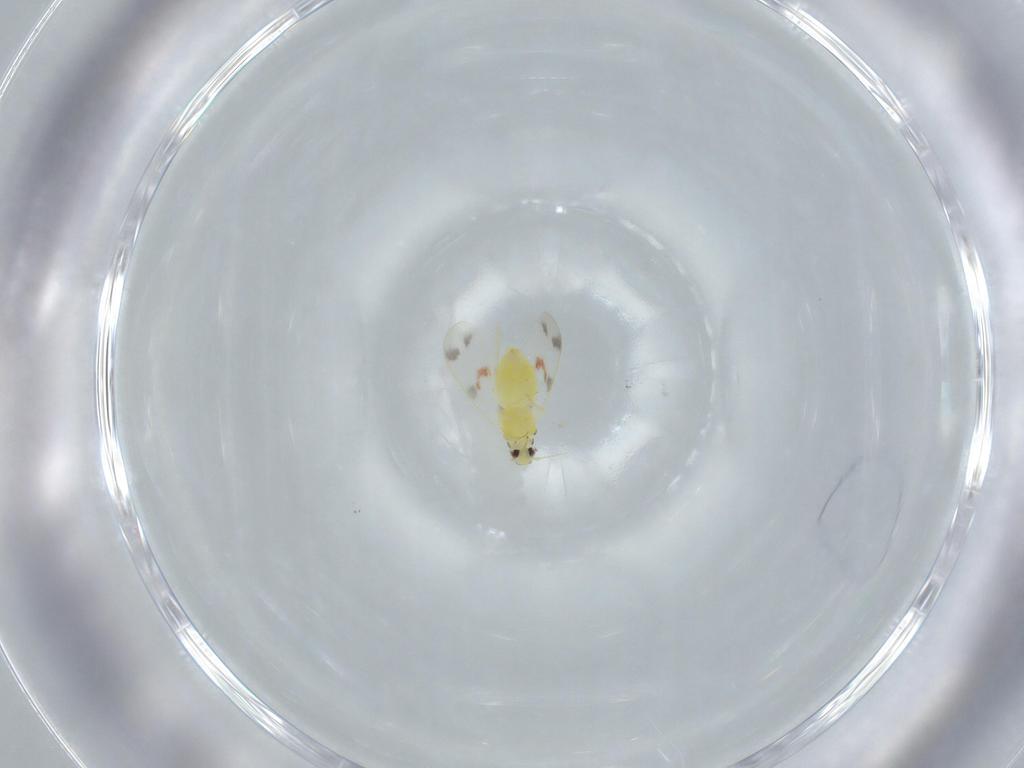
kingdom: Animalia
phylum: Arthropoda
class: Insecta
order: Hemiptera
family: Aleyrodidae
